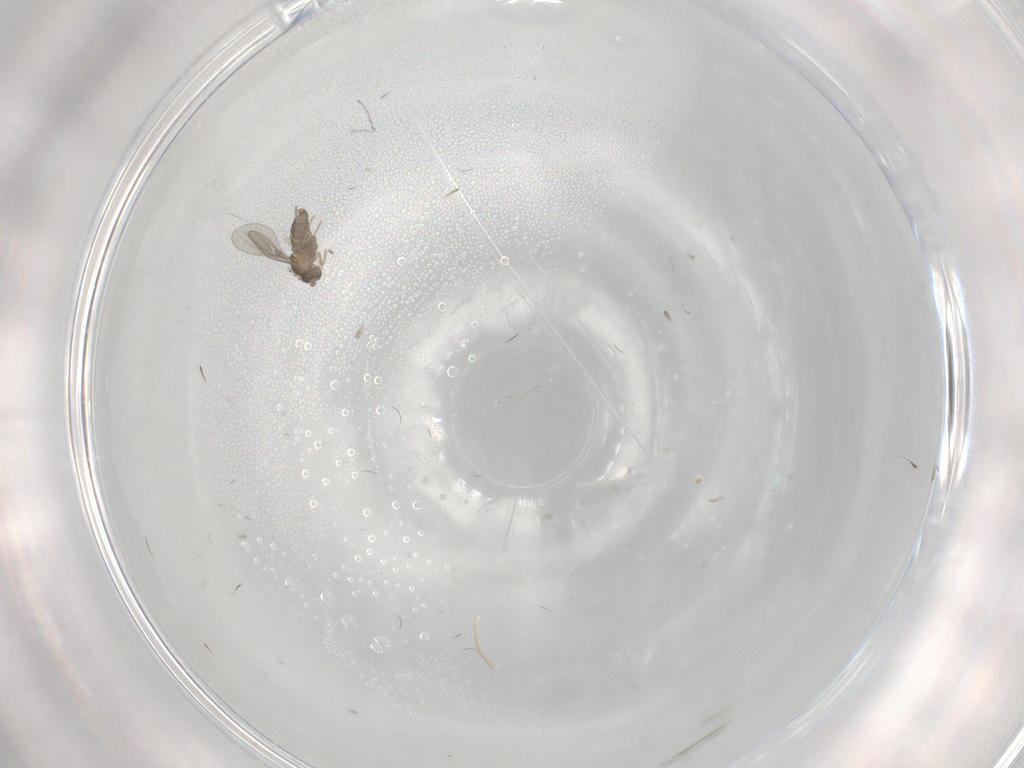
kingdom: Animalia
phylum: Arthropoda
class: Insecta
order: Diptera
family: Cecidomyiidae
